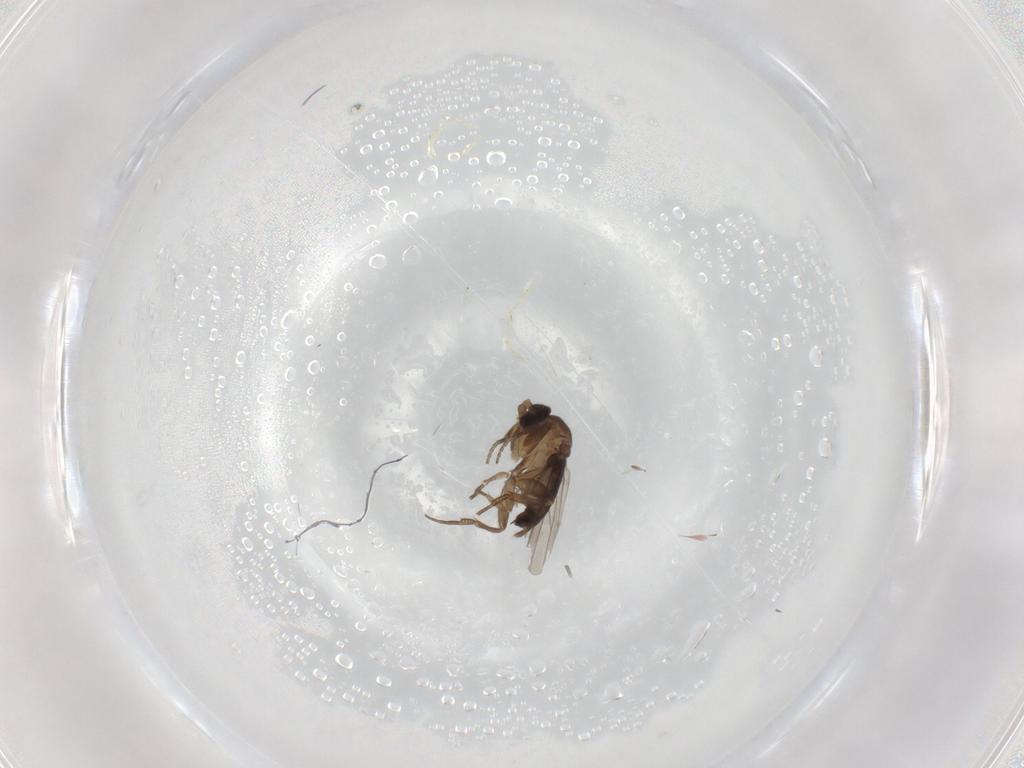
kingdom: Animalia
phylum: Arthropoda
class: Insecta
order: Diptera
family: Phoridae
